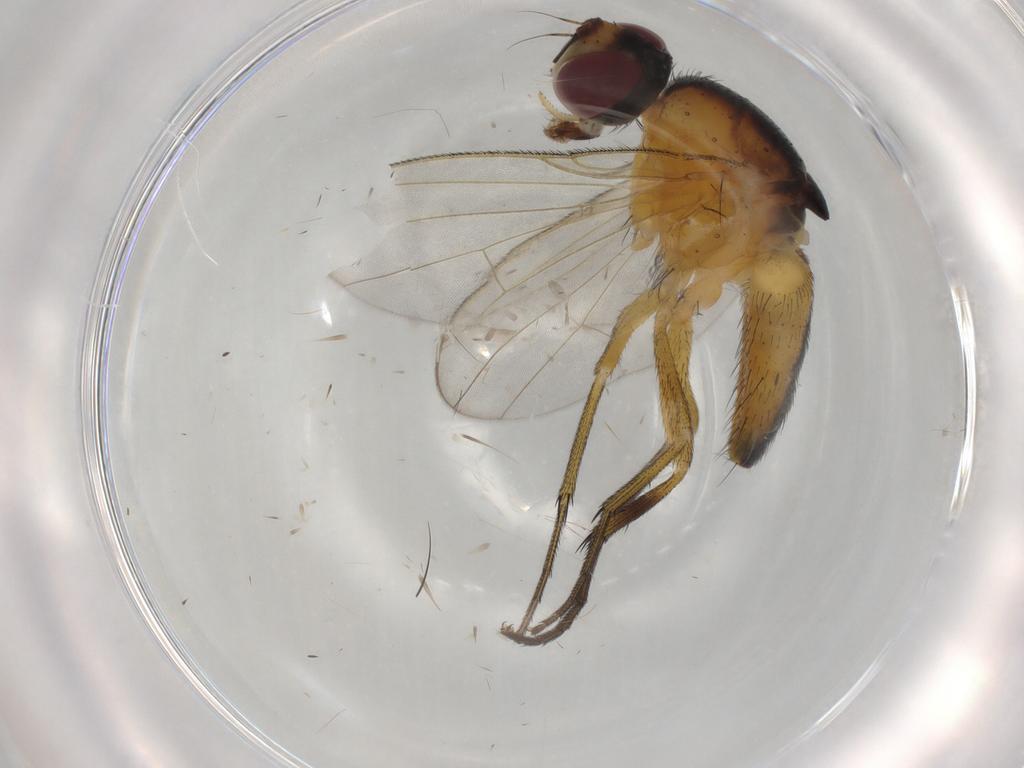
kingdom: Animalia
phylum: Arthropoda
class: Insecta
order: Diptera
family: Muscidae
